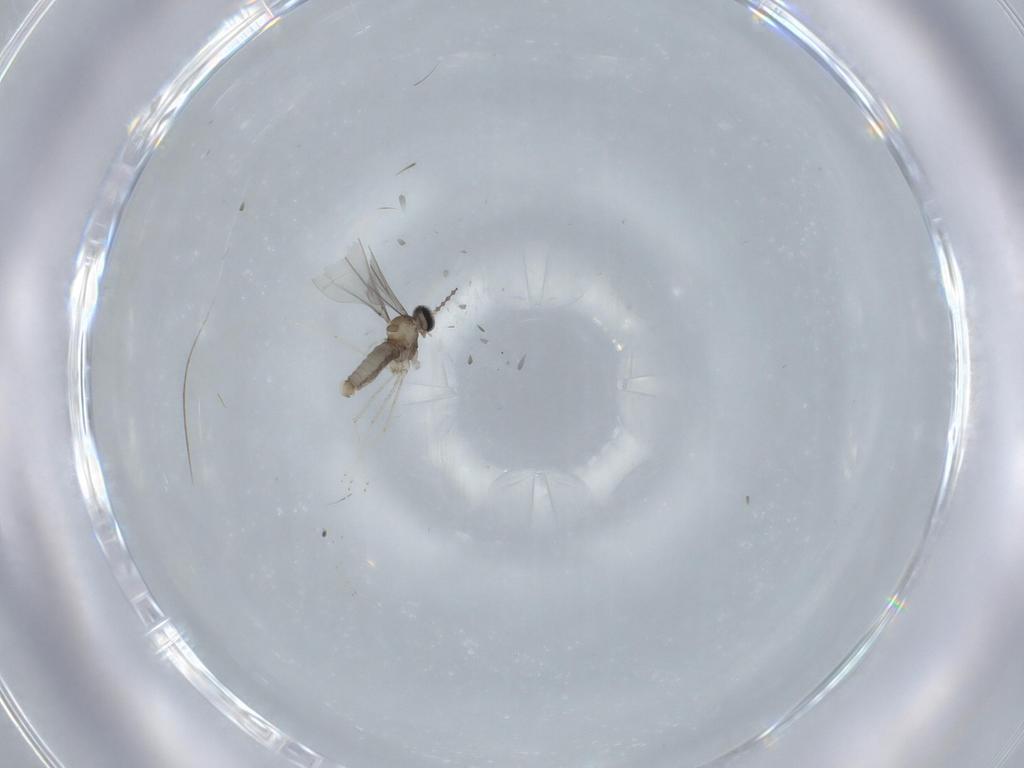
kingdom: Animalia
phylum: Arthropoda
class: Insecta
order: Diptera
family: Cecidomyiidae
